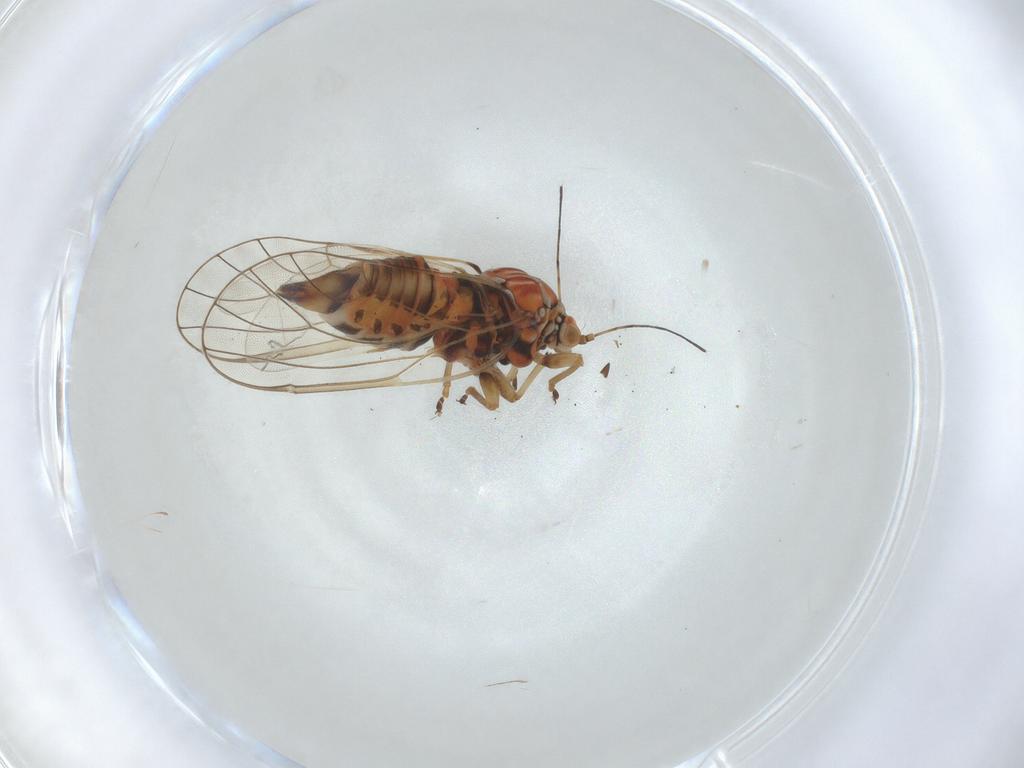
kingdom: Animalia
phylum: Arthropoda
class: Insecta
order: Hemiptera
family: Psyllidae
